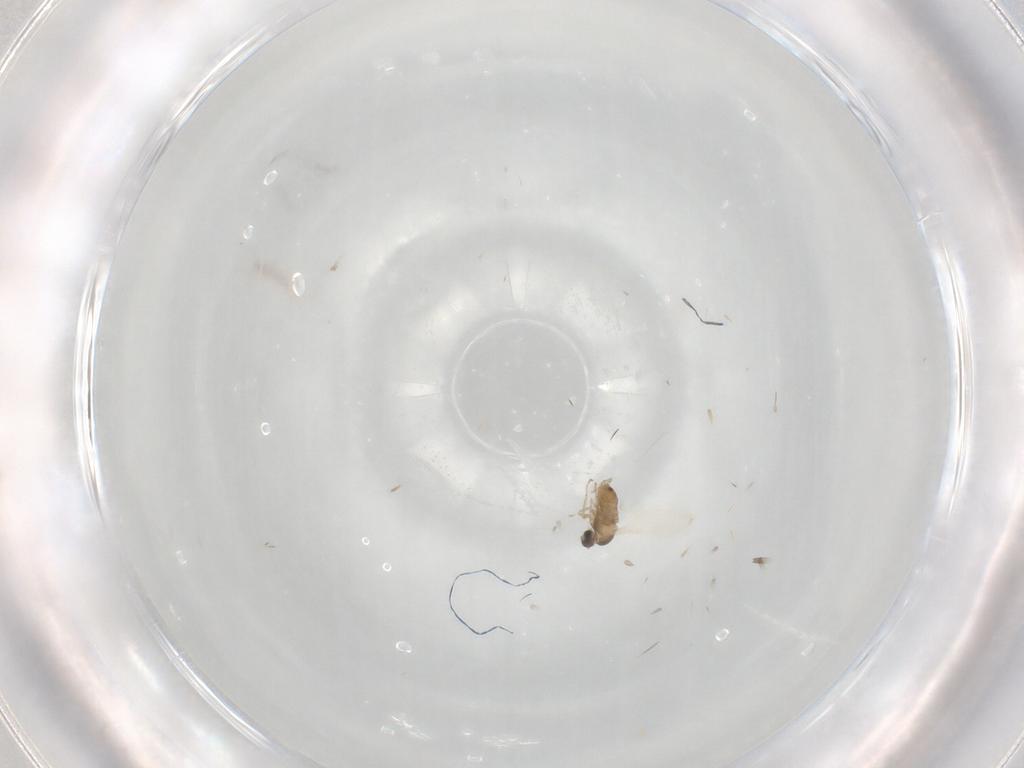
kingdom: Animalia
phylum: Arthropoda
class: Insecta
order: Diptera
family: Cecidomyiidae
